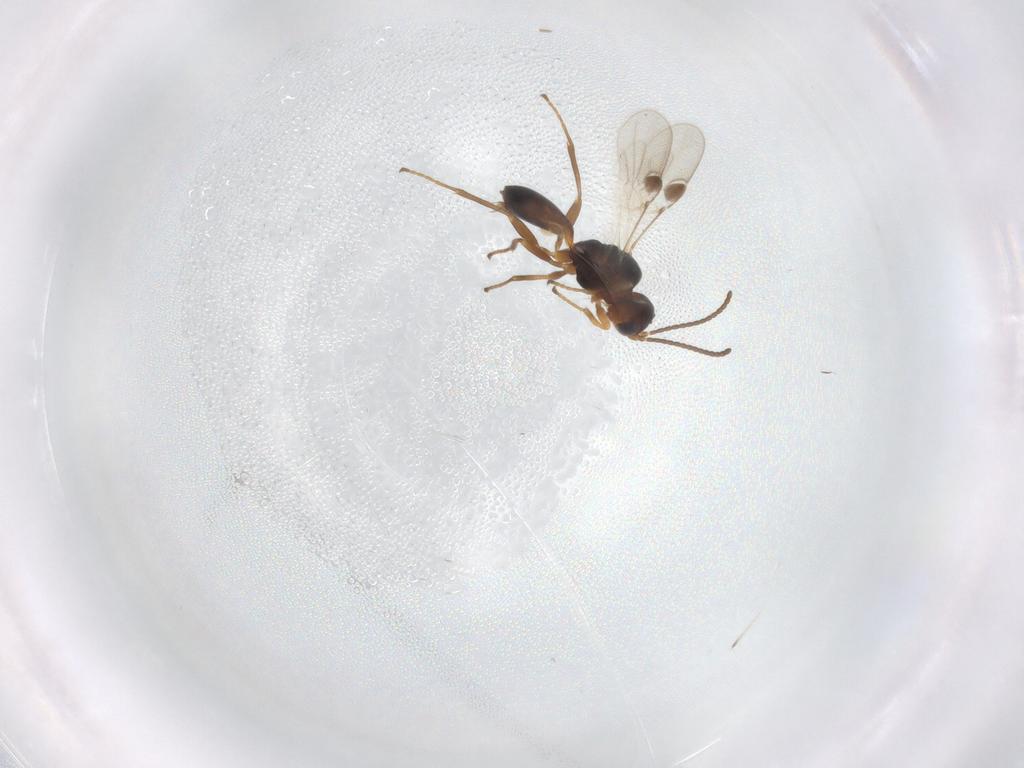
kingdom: Animalia
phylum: Arthropoda
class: Insecta
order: Hymenoptera
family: Braconidae
